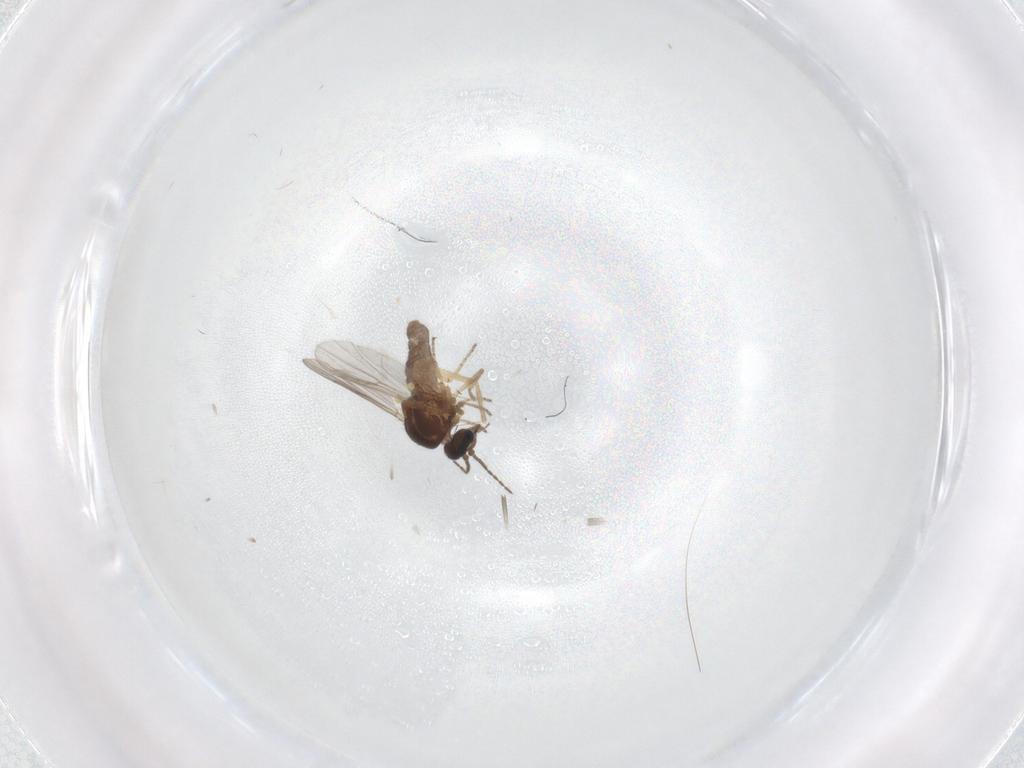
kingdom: Animalia
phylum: Arthropoda
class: Insecta
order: Diptera
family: Ceratopogonidae
